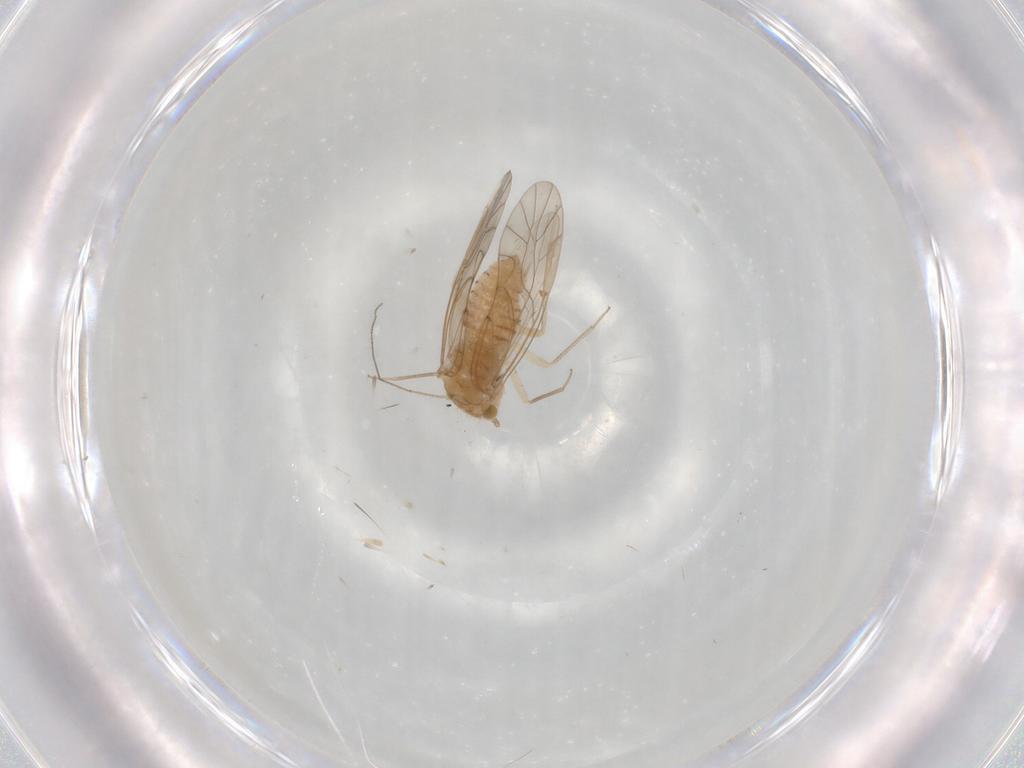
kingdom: Animalia
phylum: Arthropoda
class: Insecta
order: Psocodea
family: Lachesillidae
